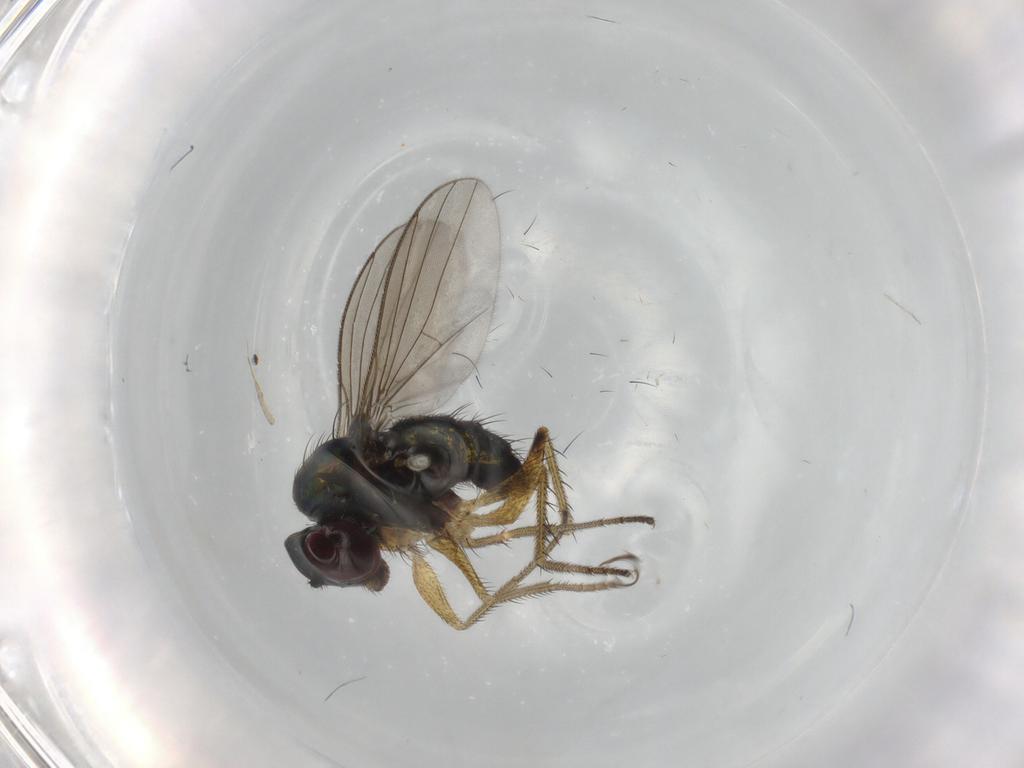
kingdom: Animalia
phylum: Arthropoda
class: Insecta
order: Diptera
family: Dolichopodidae
